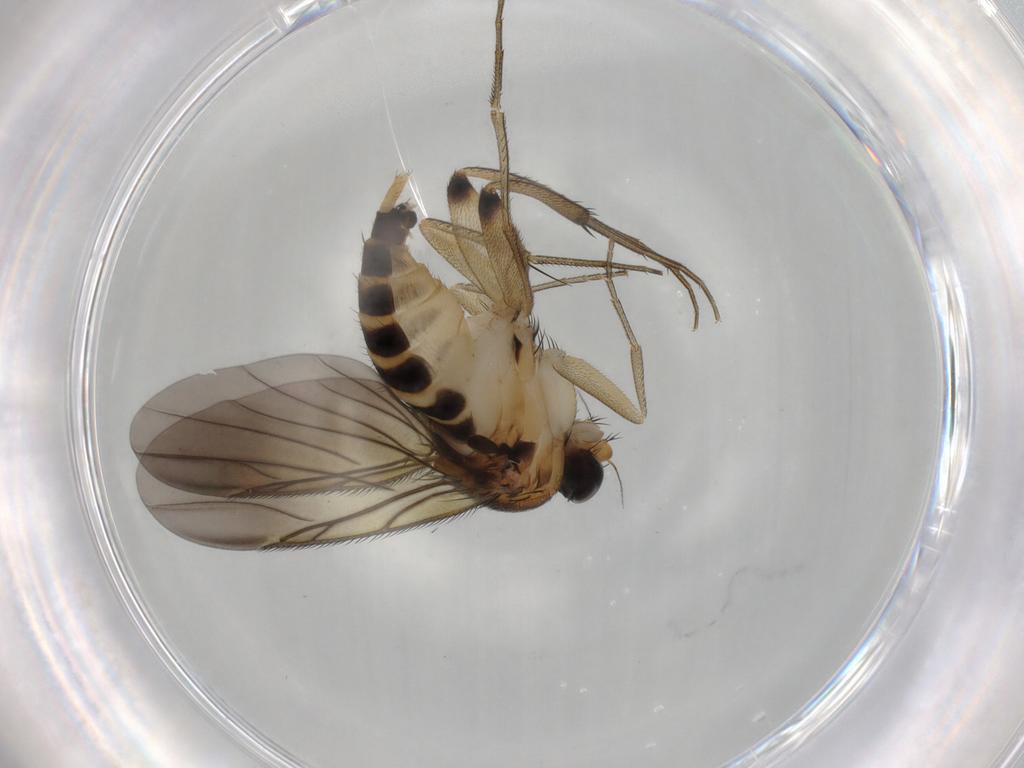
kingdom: Animalia
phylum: Arthropoda
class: Insecta
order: Diptera
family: Phoridae
